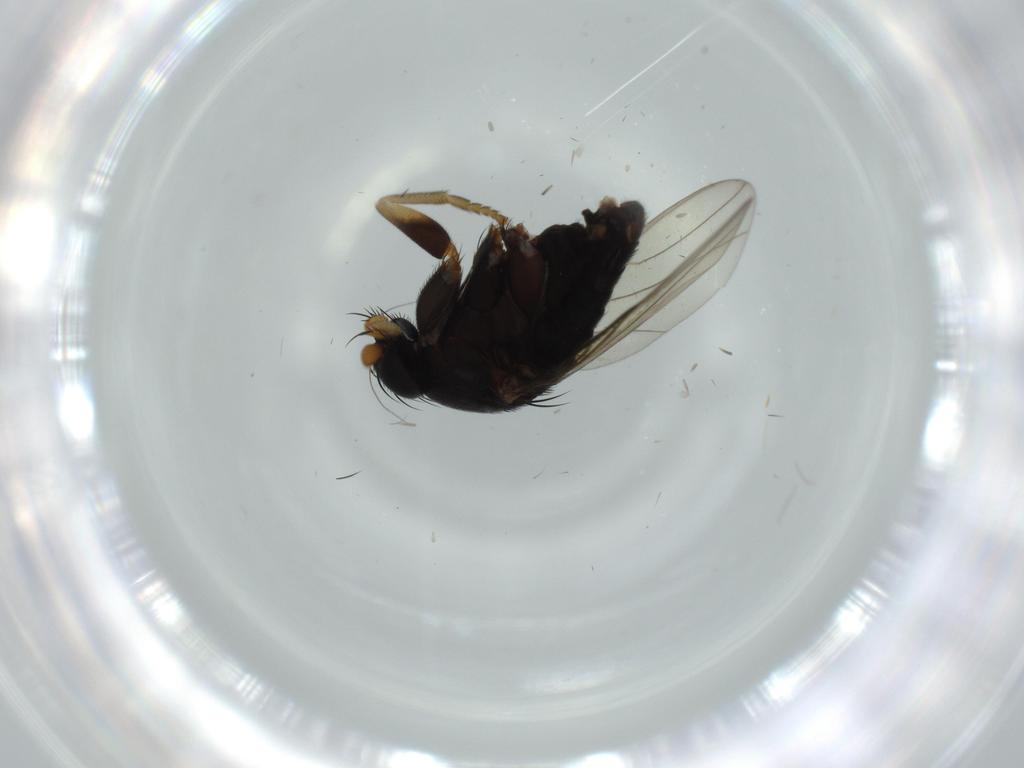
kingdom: Animalia
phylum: Arthropoda
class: Insecta
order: Diptera
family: Phoridae
